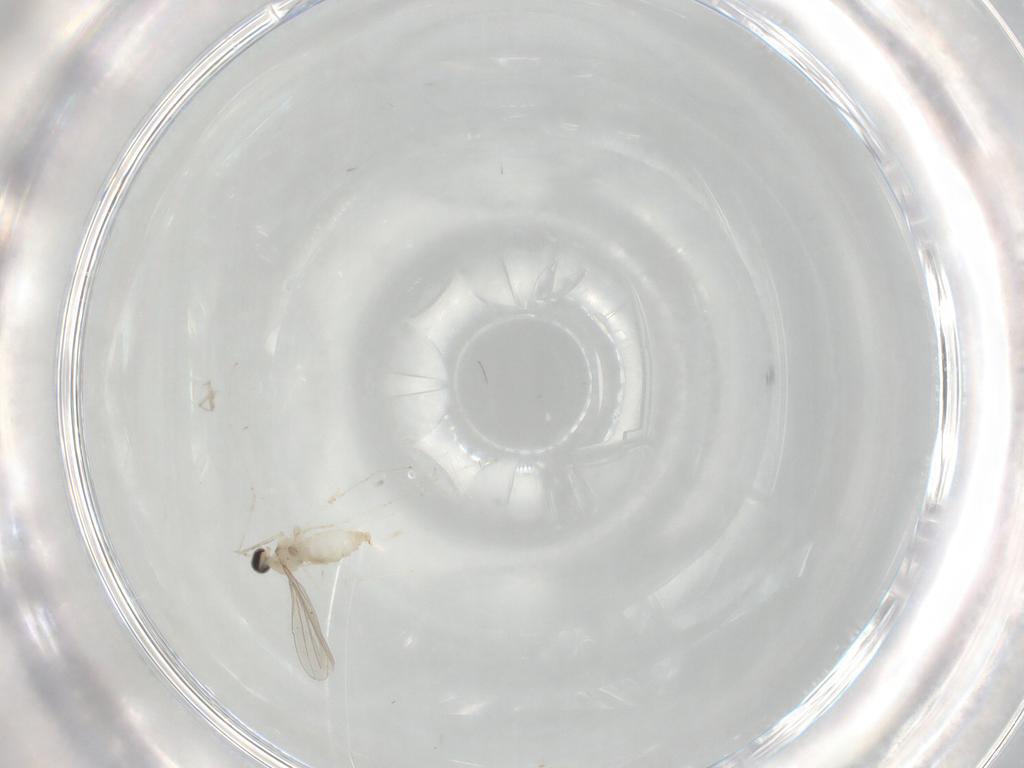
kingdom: Animalia
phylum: Arthropoda
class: Insecta
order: Diptera
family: Cecidomyiidae
